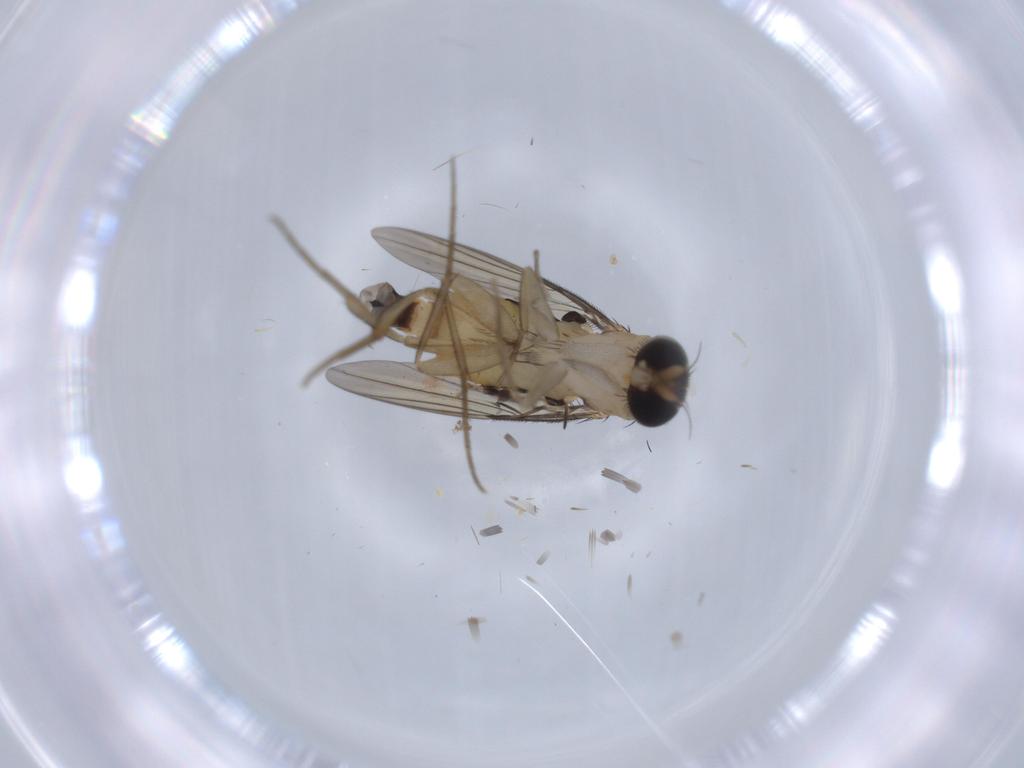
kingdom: Animalia
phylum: Arthropoda
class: Insecta
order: Diptera
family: Phoridae
